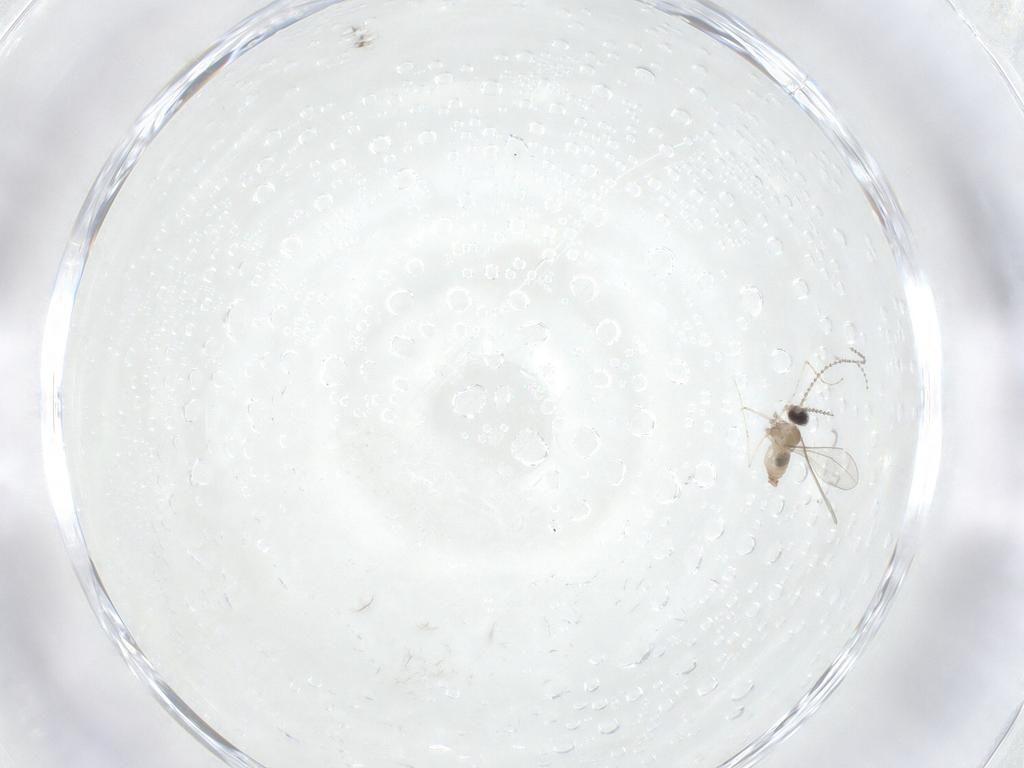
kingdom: Animalia
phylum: Arthropoda
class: Insecta
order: Diptera
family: Cecidomyiidae
